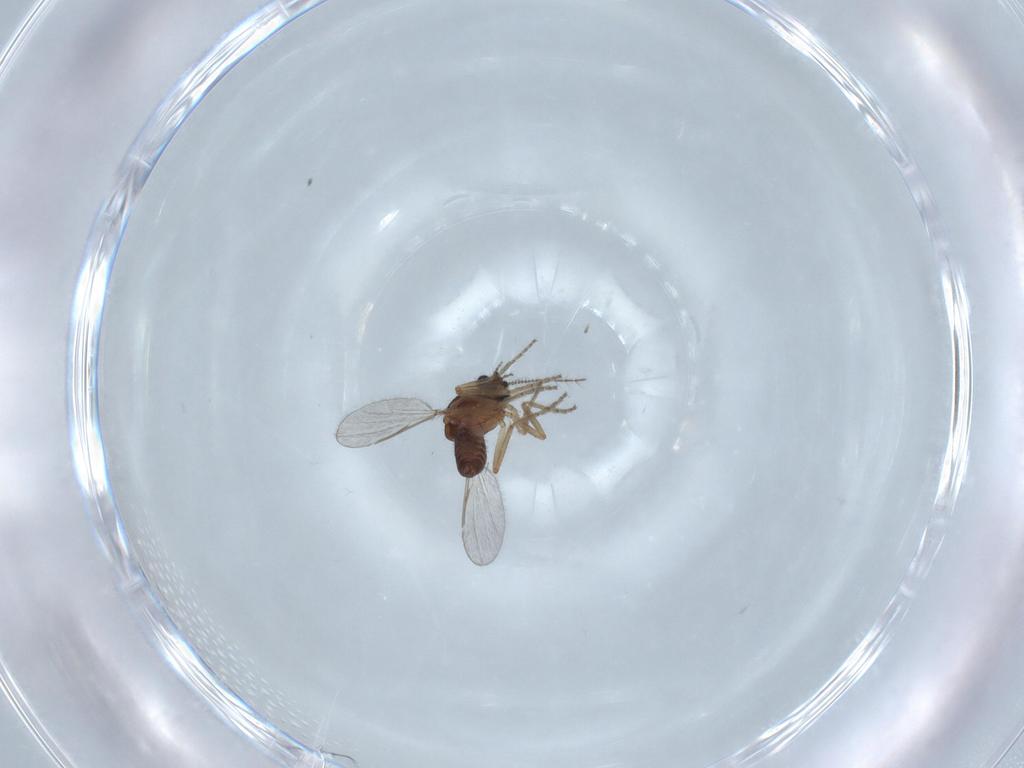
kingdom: Animalia
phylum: Arthropoda
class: Insecta
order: Diptera
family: Ceratopogonidae
